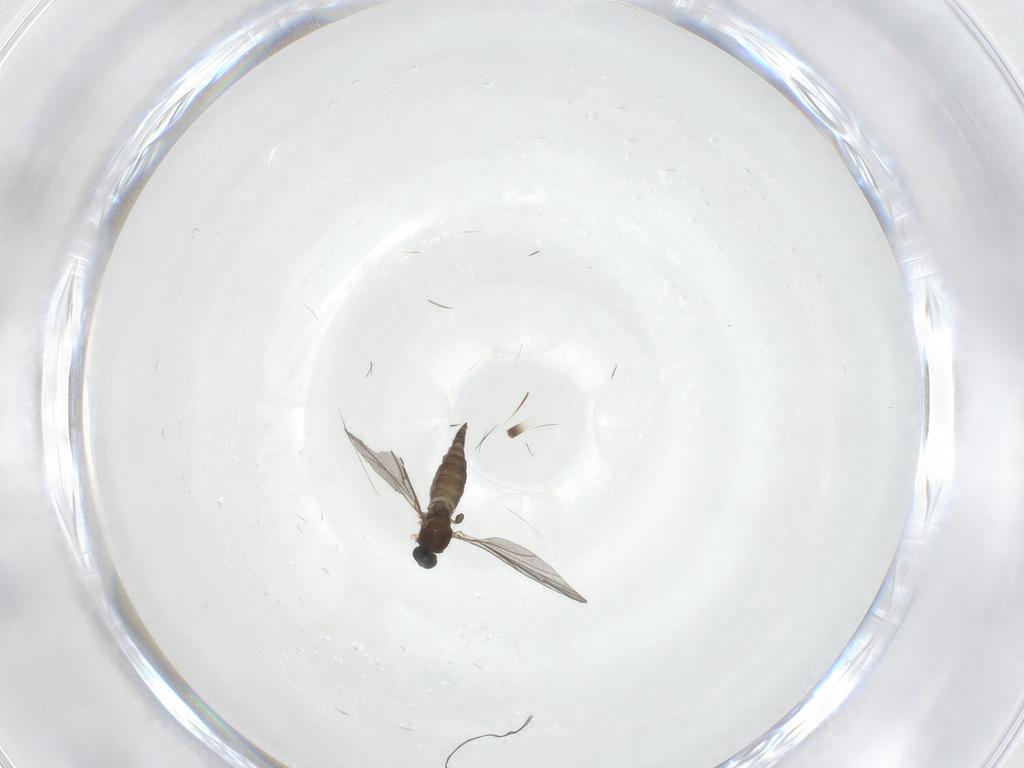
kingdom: Animalia
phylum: Arthropoda
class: Insecta
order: Diptera
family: Sciaridae
